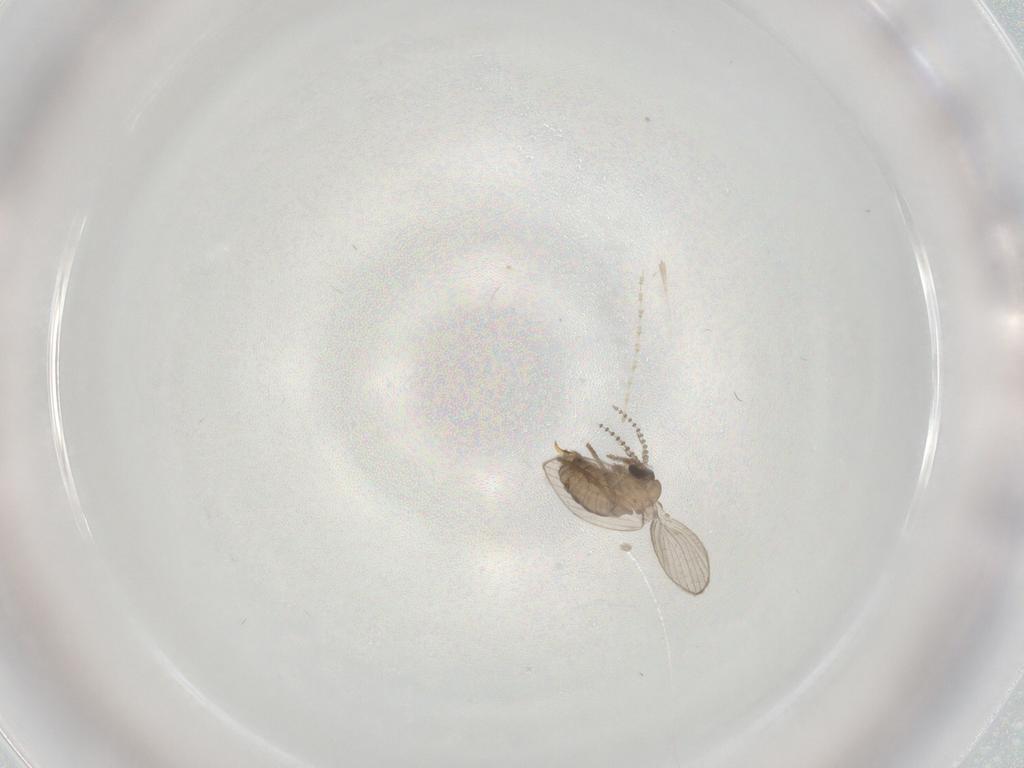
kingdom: Animalia
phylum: Arthropoda
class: Insecta
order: Diptera
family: Psychodidae
